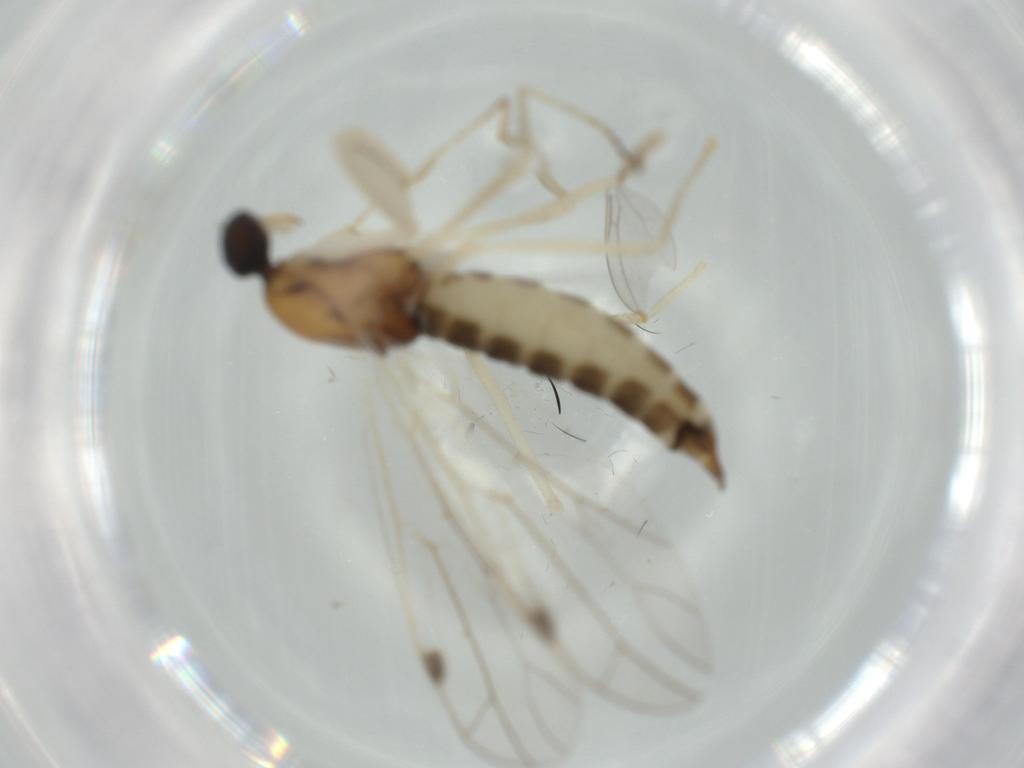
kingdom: Animalia
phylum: Arthropoda
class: Insecta
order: Diptera
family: Empididae
